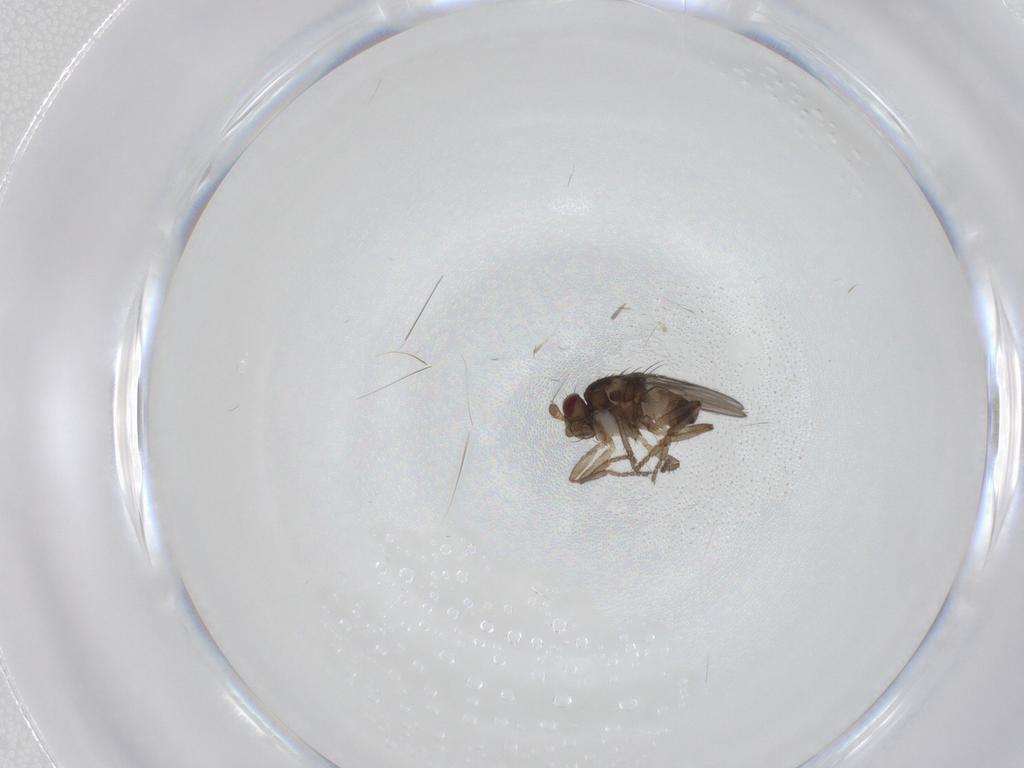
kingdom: Animalia
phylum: Arthropoda
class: Insecta
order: Diptera
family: Sphaeroceridae
